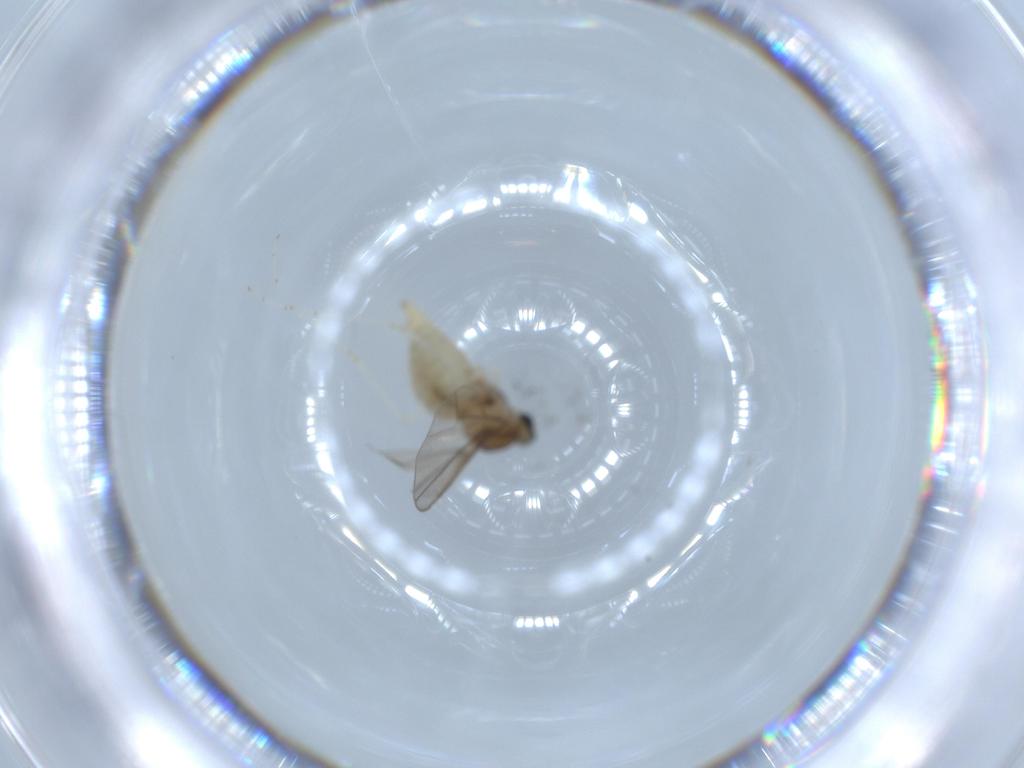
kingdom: Animalia
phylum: Arthropoda
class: Insecta
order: Diptera
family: Cecidomyiidae
